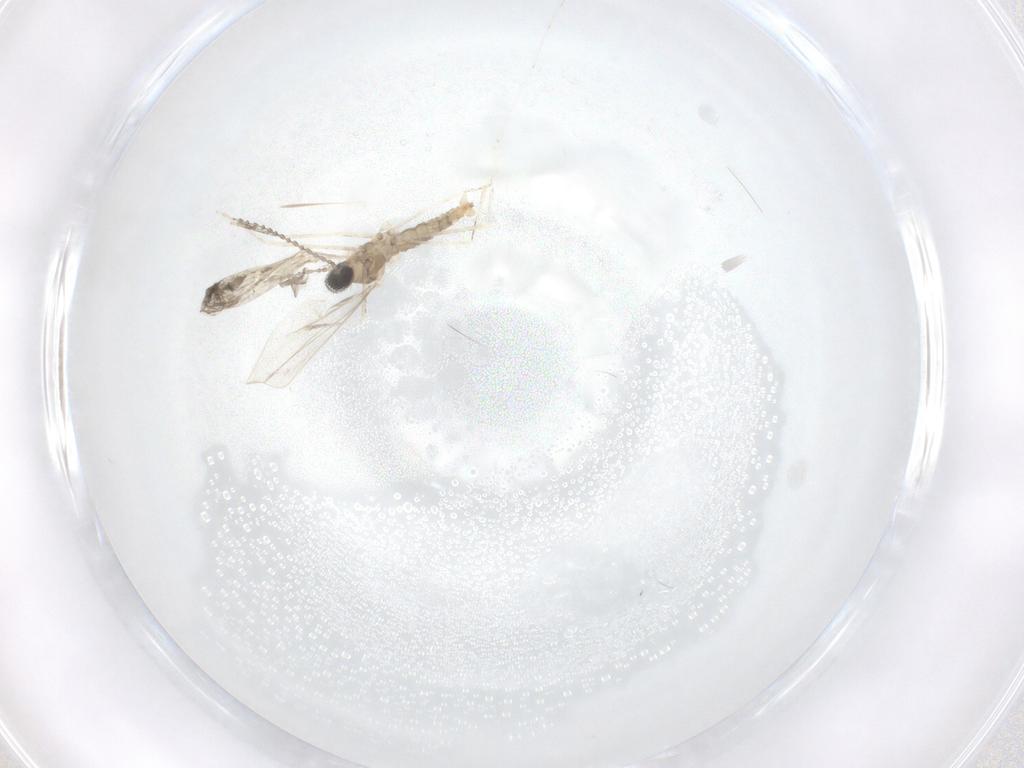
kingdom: Animalia
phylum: Arthropoda
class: Insecta
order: Diptera
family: Cecidomyiidae
